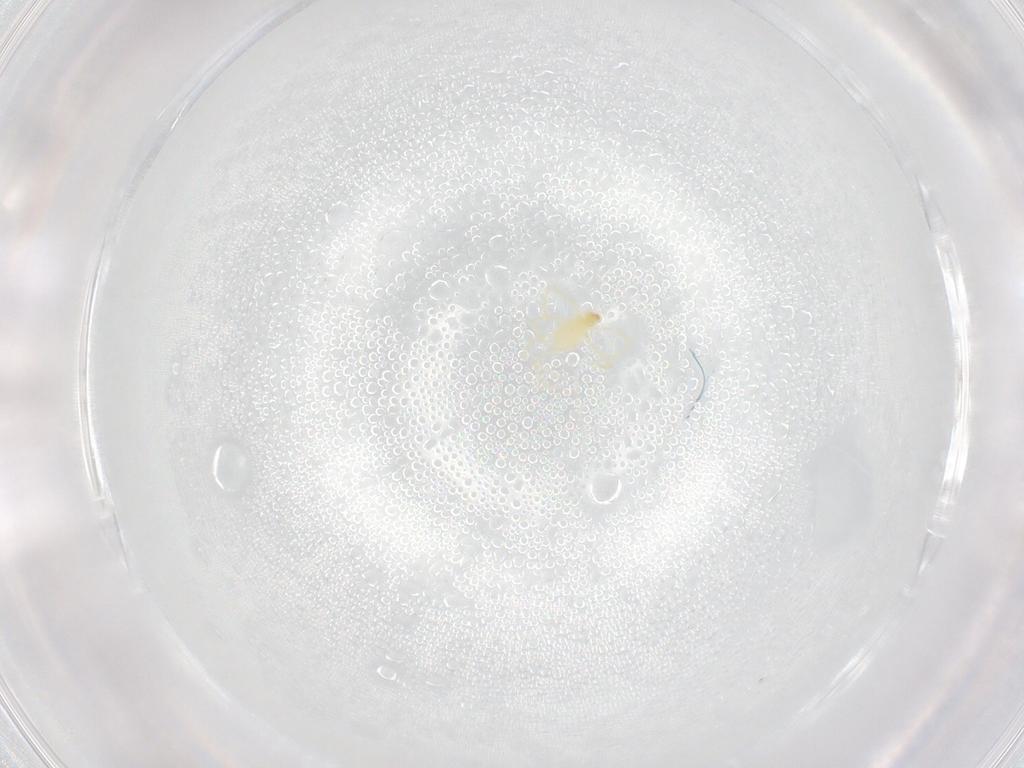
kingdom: Animalia
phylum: Arthropoda
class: Arachnida
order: Trombidiformes
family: Erythraeidae
